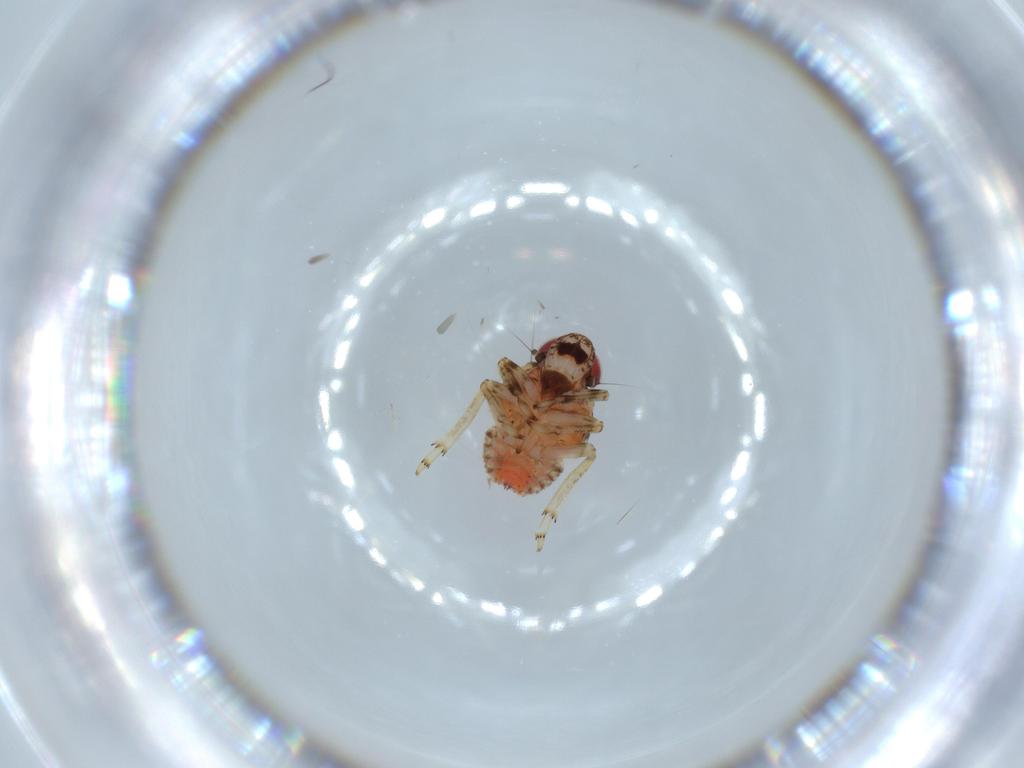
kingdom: Animalia
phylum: Arthropoda
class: Insecta
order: Hemiptera
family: Issidae
